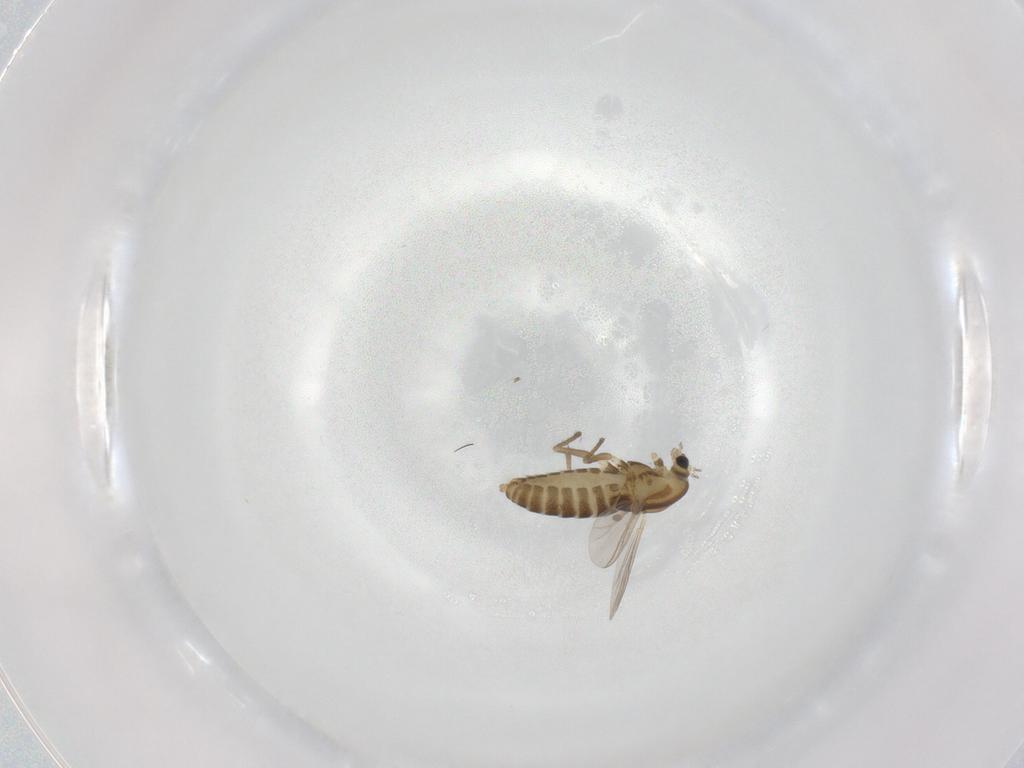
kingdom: Animalia
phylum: Arthropoda
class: Insecta
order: Diptera
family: Chironomidae
